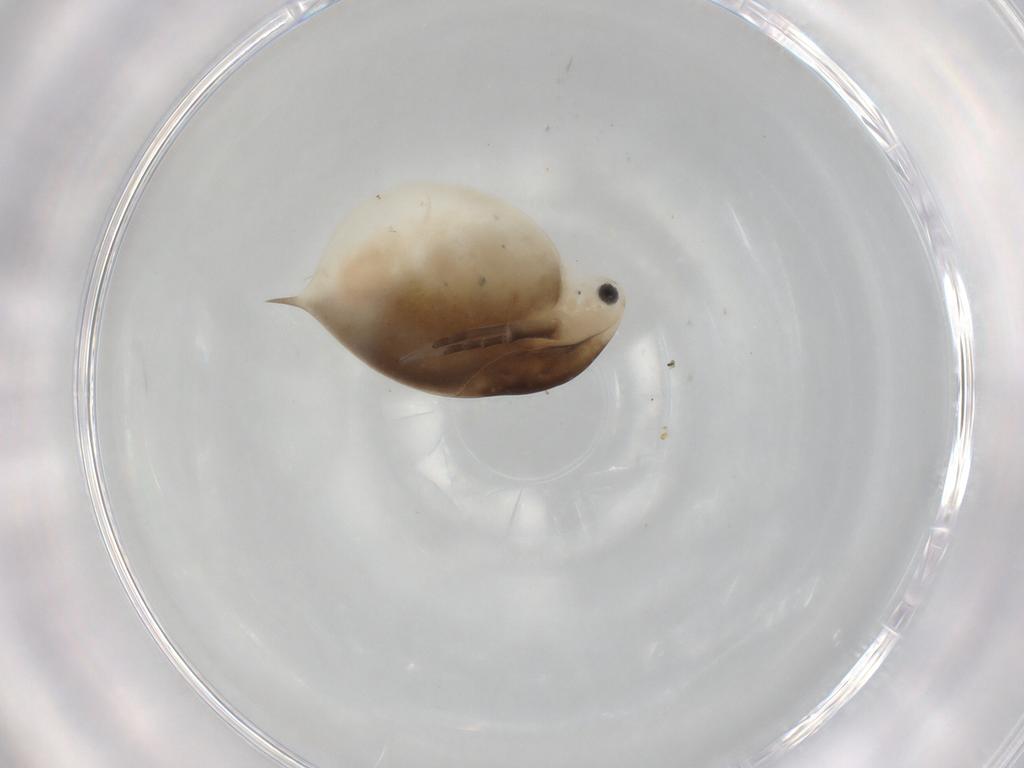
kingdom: Animalia
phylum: Arthropoda
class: Branchiopoda
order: Diplostraca
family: Daphniidae
